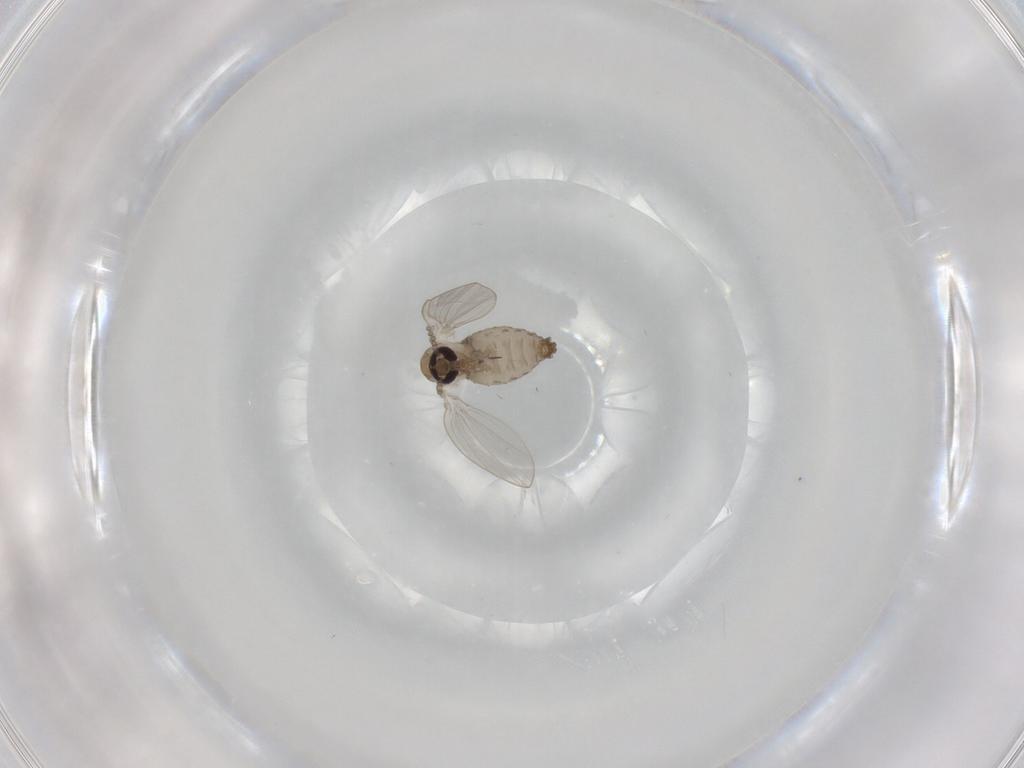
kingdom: Animalia
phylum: Arthropoda
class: Insecta
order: Diptera
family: Psychodidae
